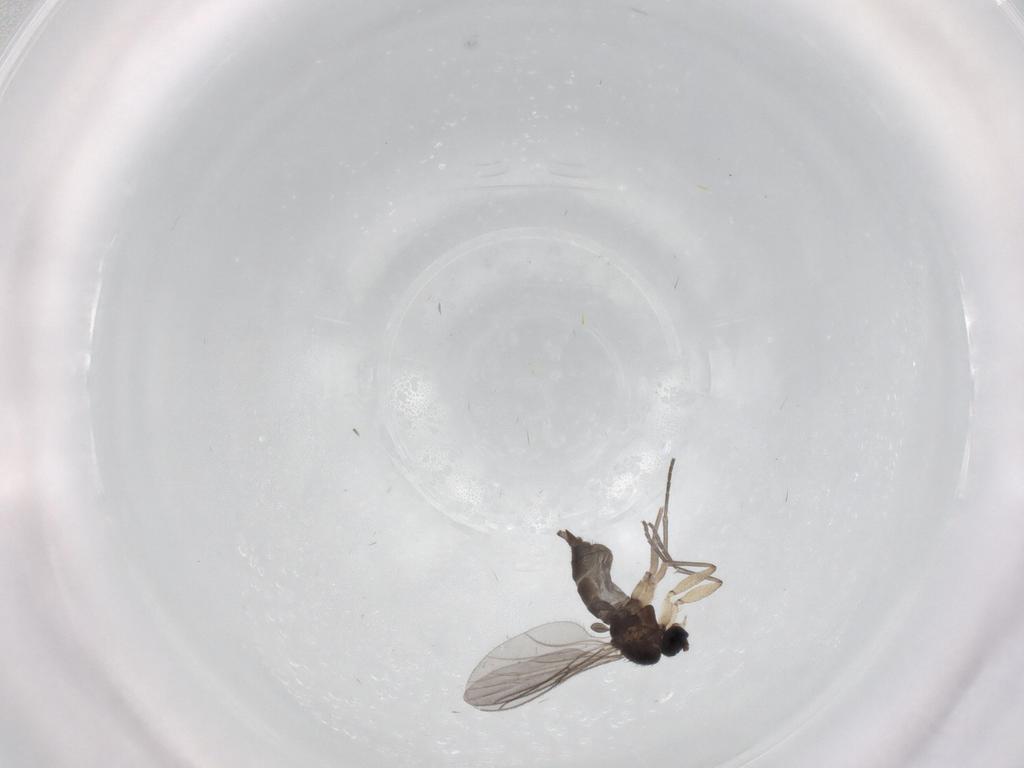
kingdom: Animalia
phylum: Arthropoda
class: Insecta
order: Diptera
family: Sciaridae
